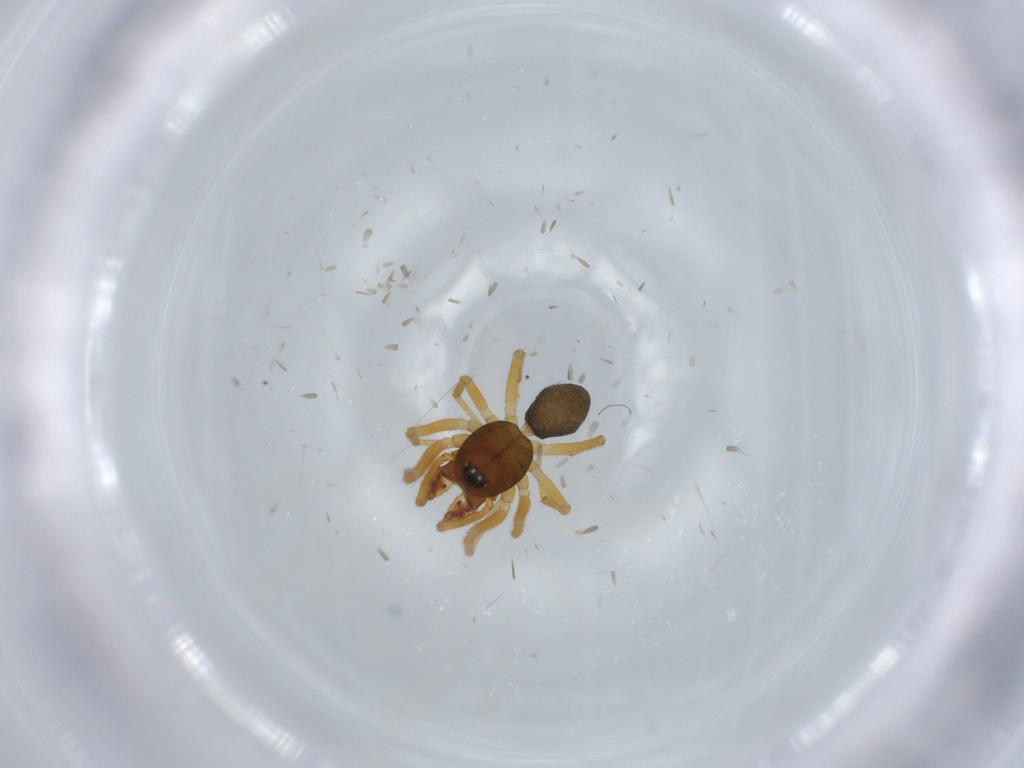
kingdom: Animalia
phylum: Arthropoda
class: Arachnida
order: Araneae
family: Linyphiidae
